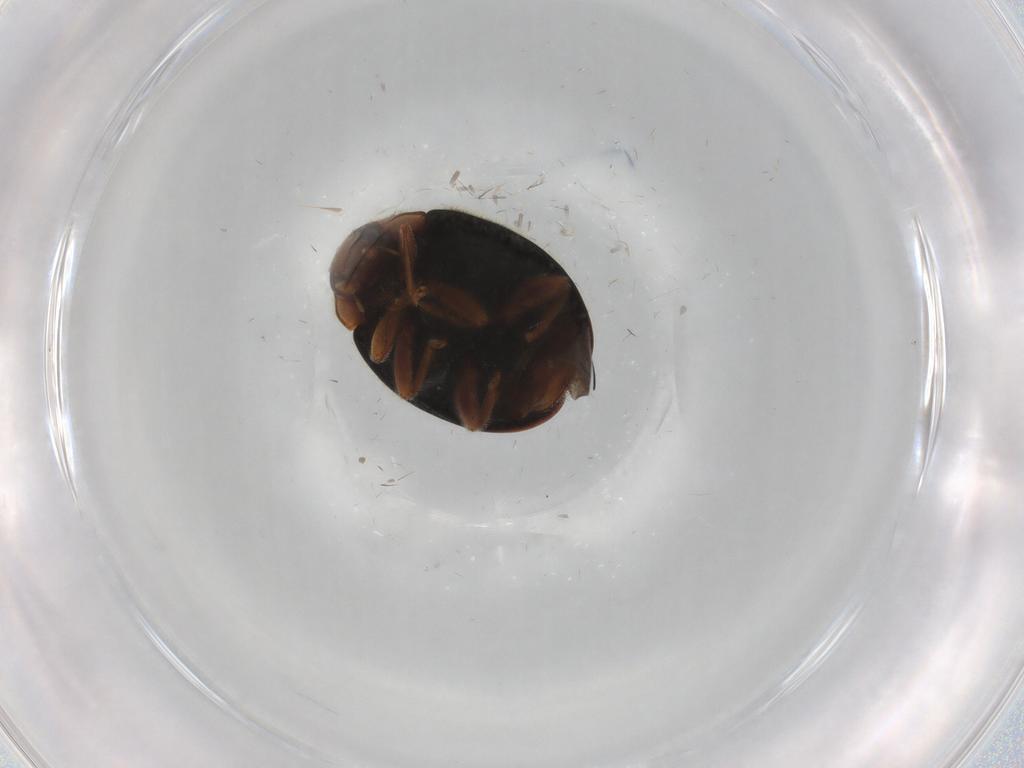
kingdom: Animalia
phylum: Arthropoda
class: Insecta
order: Coleoptera
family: Coccinellidae
